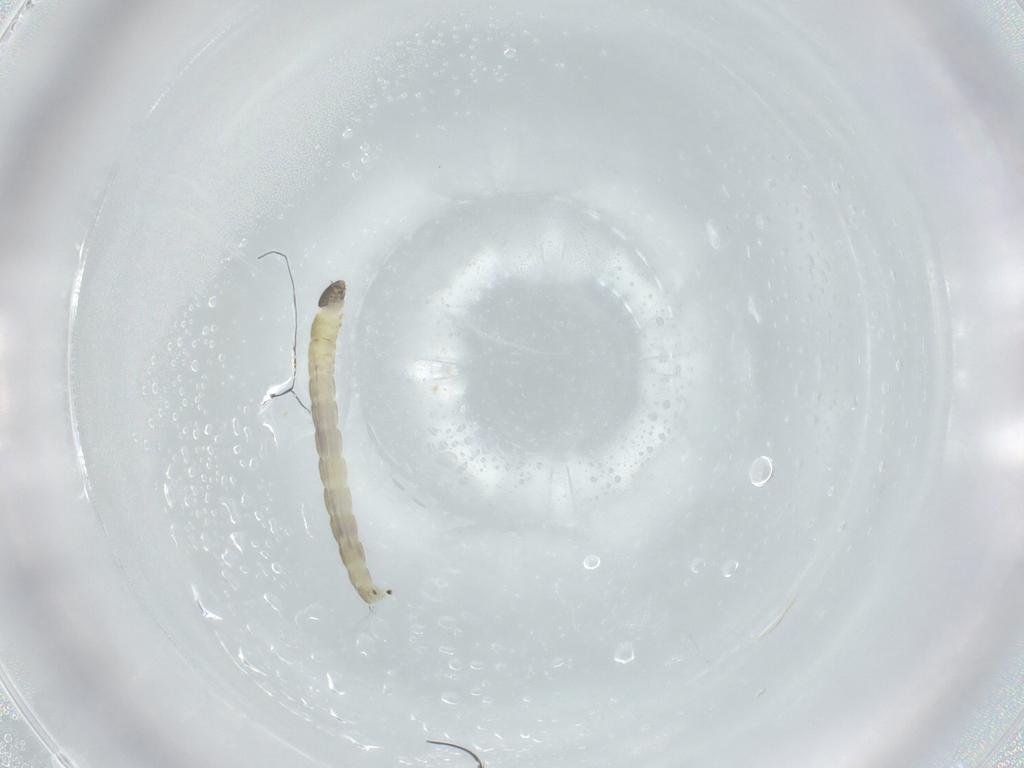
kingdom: Animalia
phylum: Arthropoda
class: Insecta
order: Diptera
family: Chironomidae
